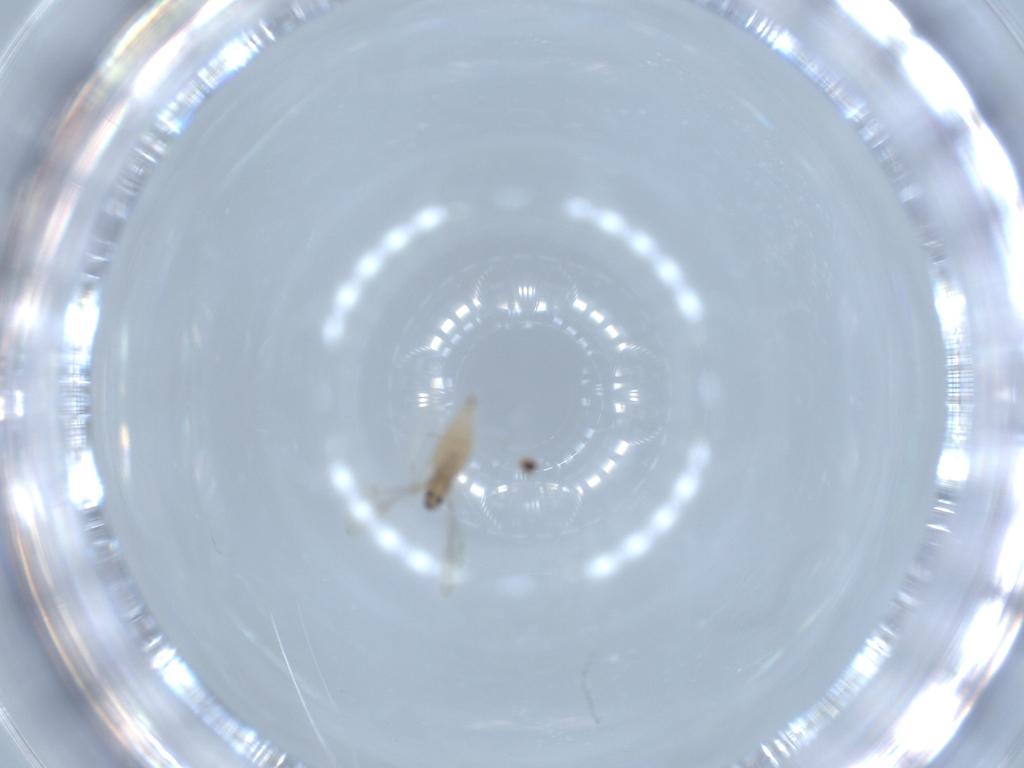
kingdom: Animalia
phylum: Arthropoda
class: Insecta
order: Diptera
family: Cecidomyiidae
